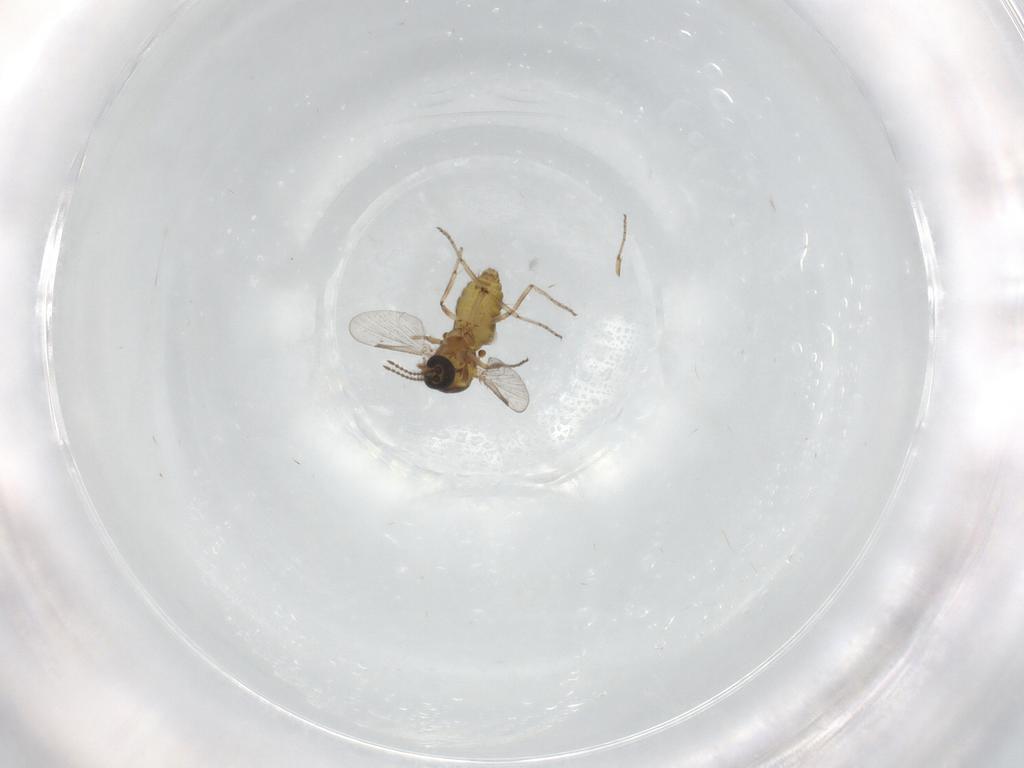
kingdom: Animalia
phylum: Arthropoda
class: Insecta
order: Diptera
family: Ceratopogonidae
